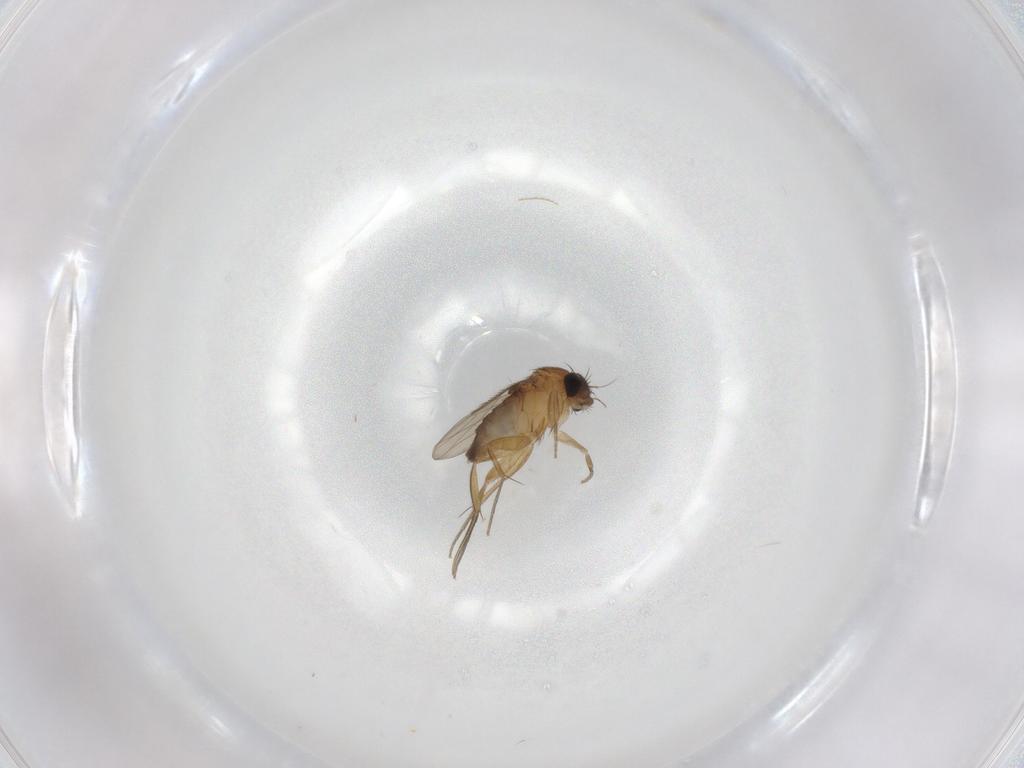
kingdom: Animalia
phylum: Arthropoda
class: Insecta
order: Diptera
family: Phoridae
